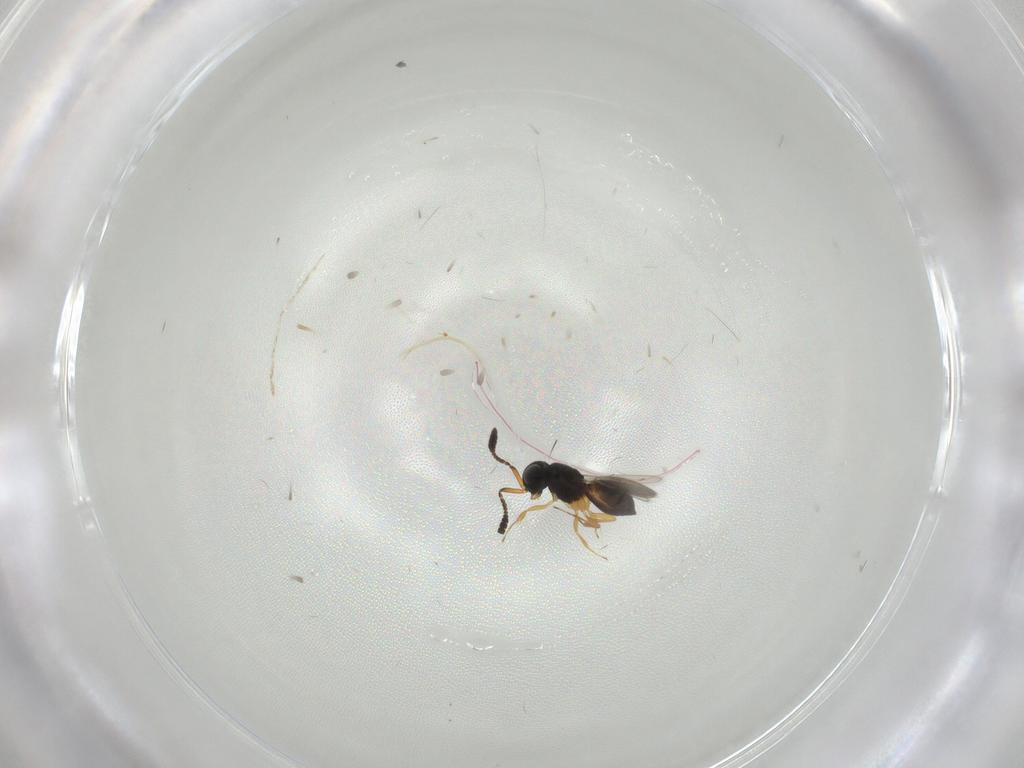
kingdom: Animalia
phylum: Arthropoda
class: Insecta
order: Hymenoptera
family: Scelionidae
